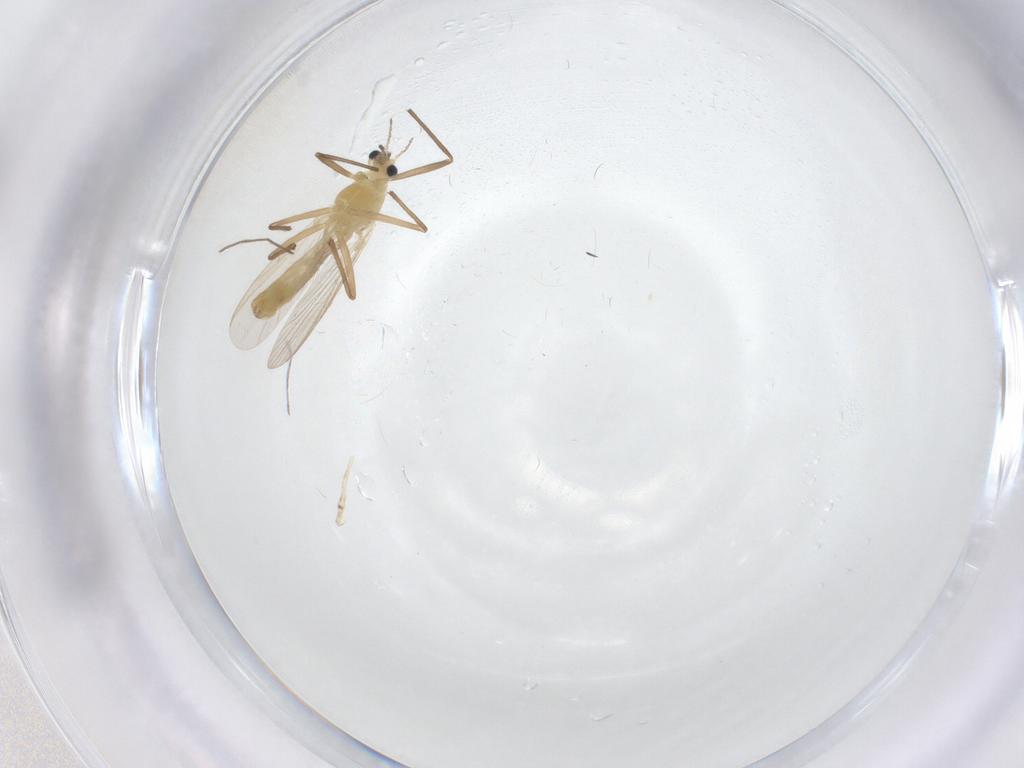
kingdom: Animalia
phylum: Arthropoda
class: Insecta
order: Diptera
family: Chironomidae
